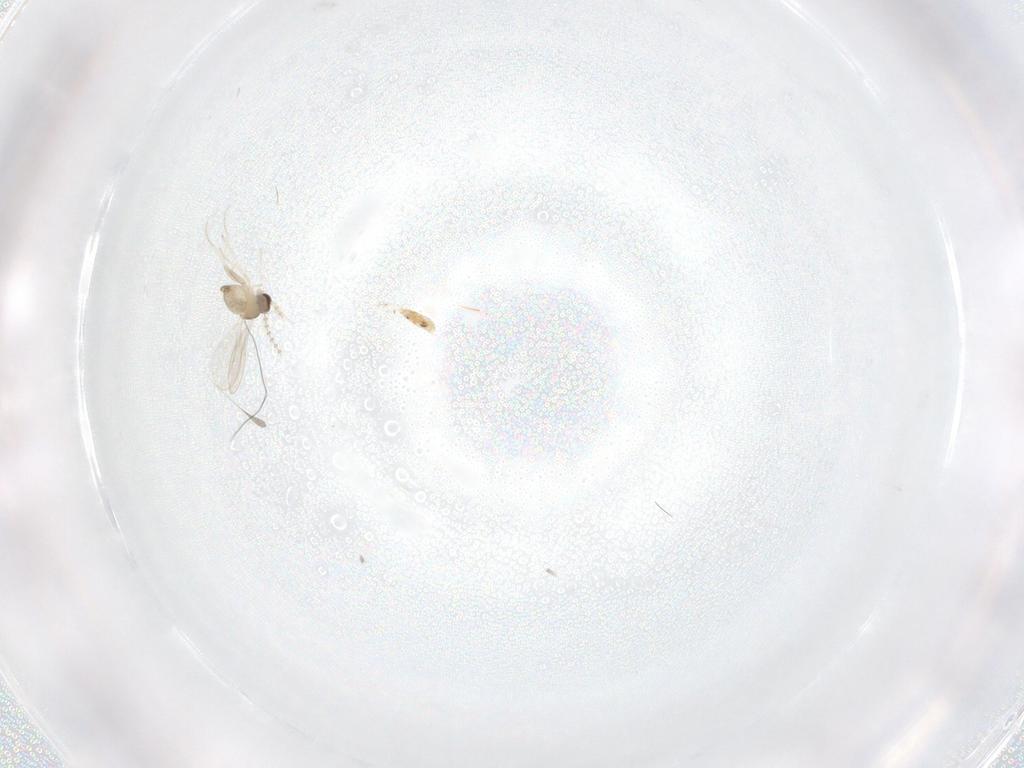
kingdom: Animalia
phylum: Arthropoda
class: Insecta
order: Diptera
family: Cecidomyiidae
